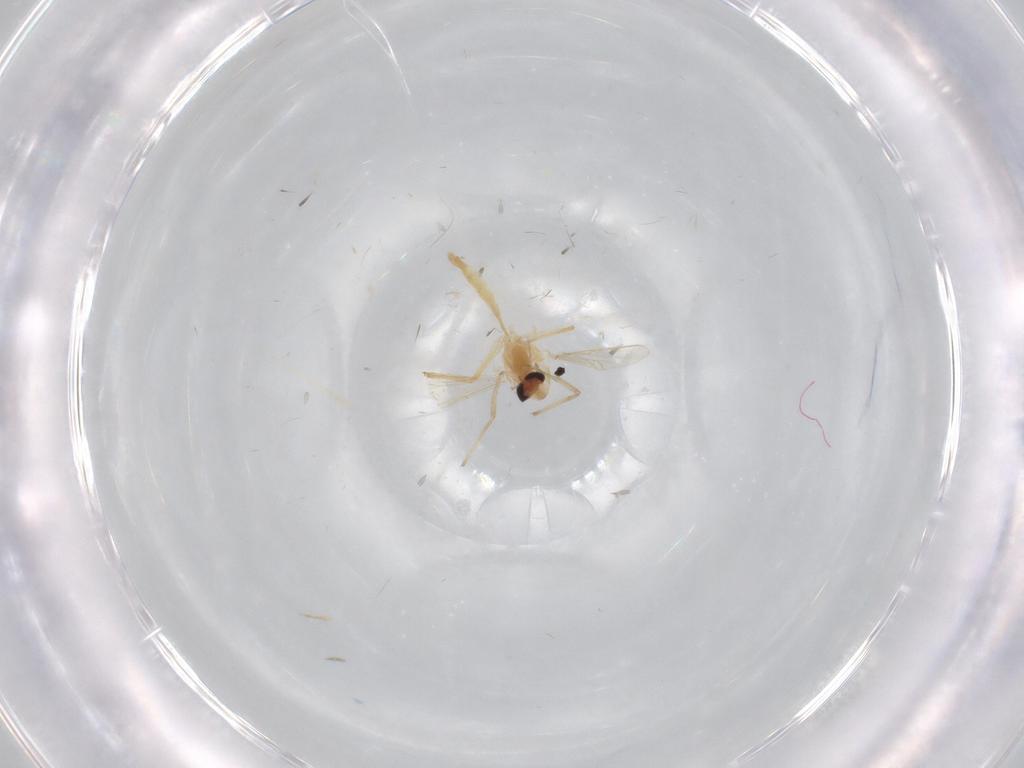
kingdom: Animalia
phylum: Arthropoda
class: Insecta
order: Diptera
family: Chironomidae
